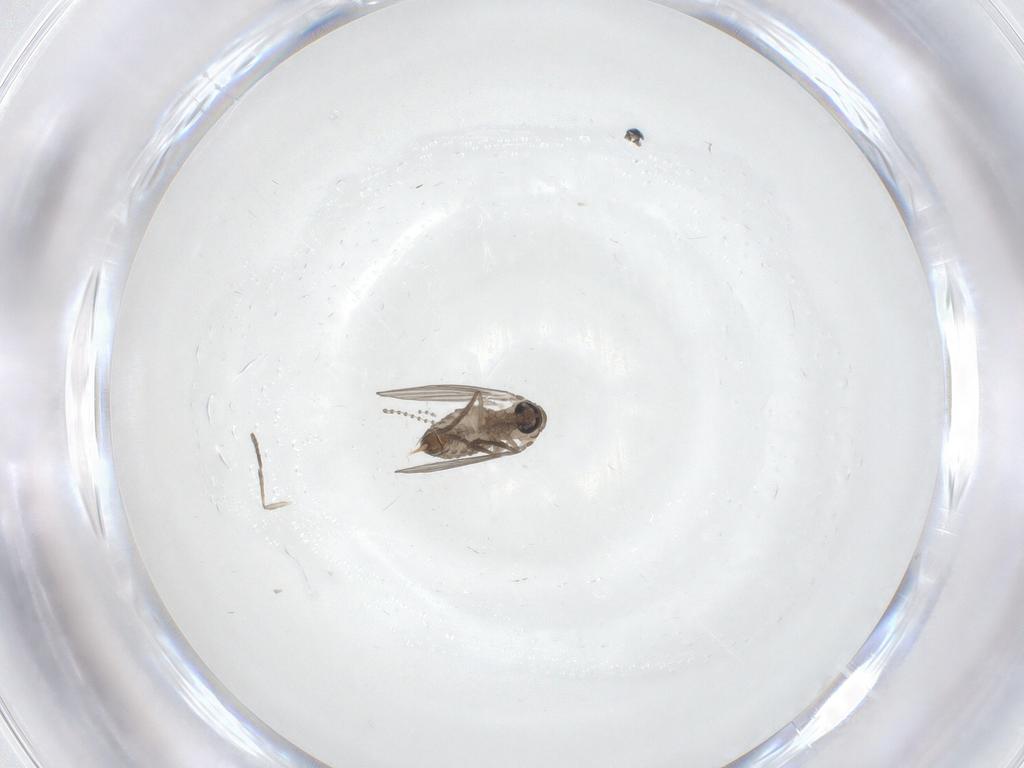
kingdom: Animalia
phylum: Arthropoda
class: Insecta
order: Diptera
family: Psychodidae
